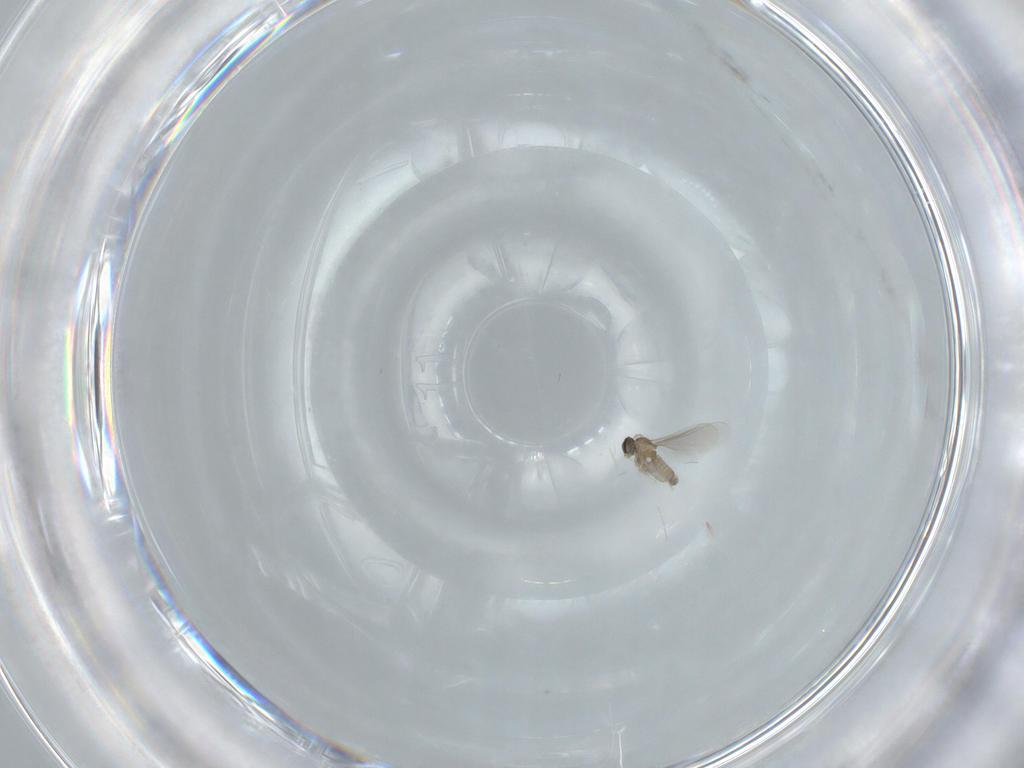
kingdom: Animalia
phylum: Arthropoda
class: Insecta
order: Diptera
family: Cecidomyiidae
